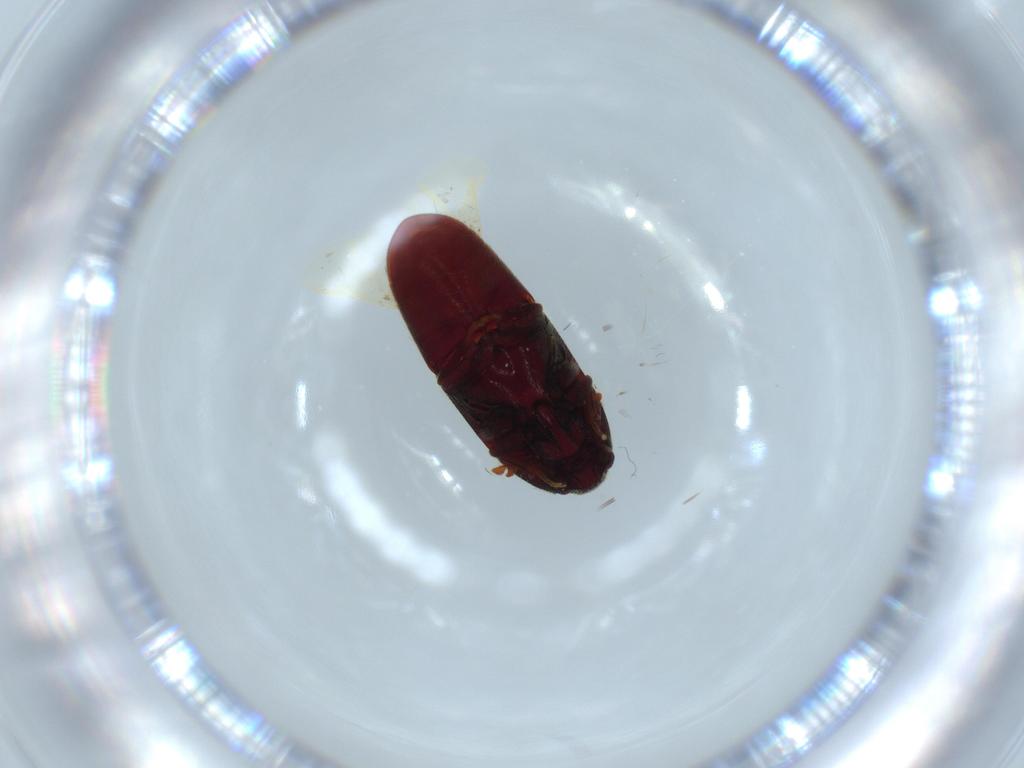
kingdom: Animalia
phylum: Arthropoda
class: Insecta
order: Coleoptera
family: Throscidae
